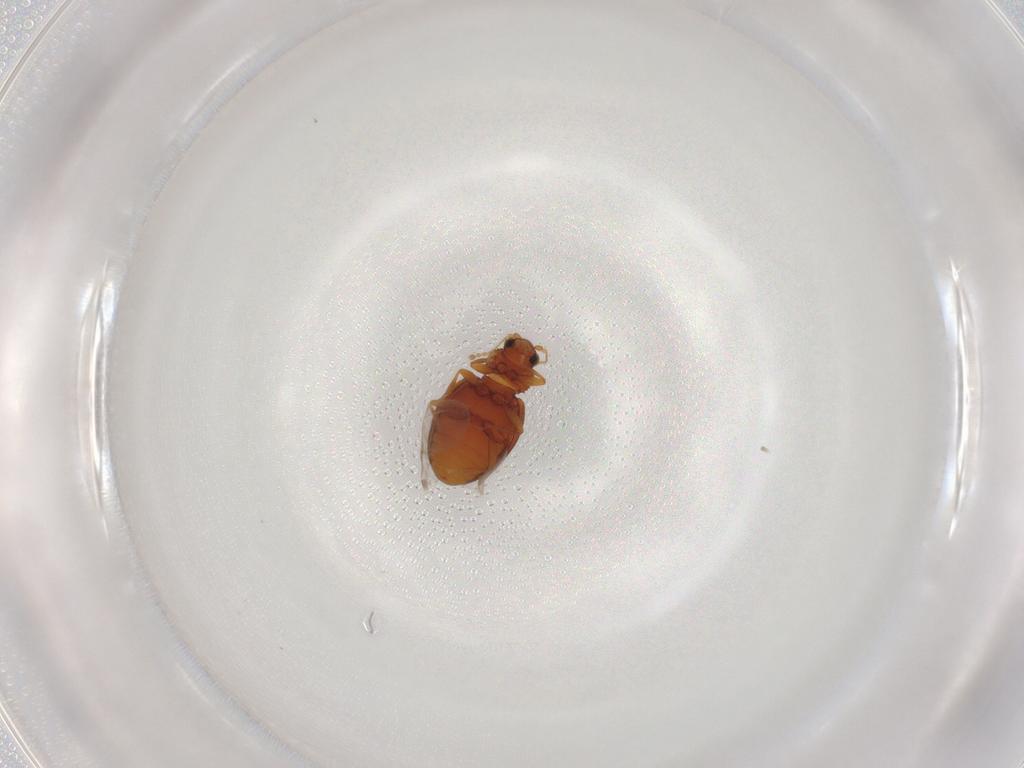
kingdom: Animalia
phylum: Arthropoda
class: Insecta
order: Coleoptera
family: Latridiidae
